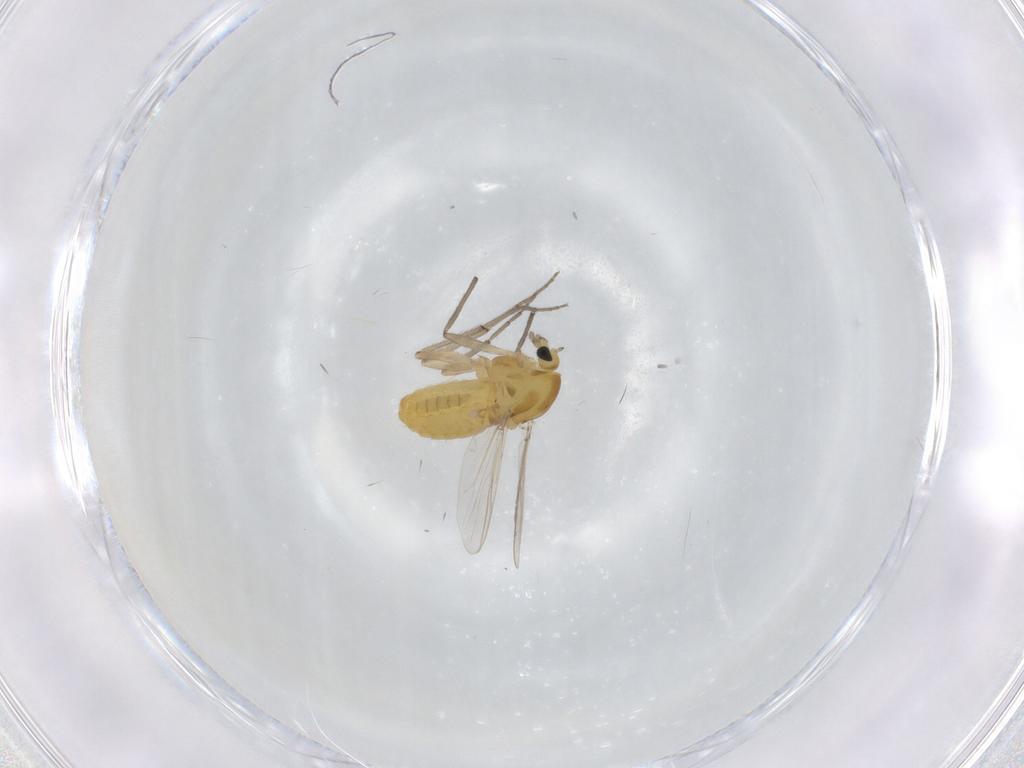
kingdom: Animalia
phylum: Arthropoda
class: Insecta
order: Diptera
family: Chironomidae
